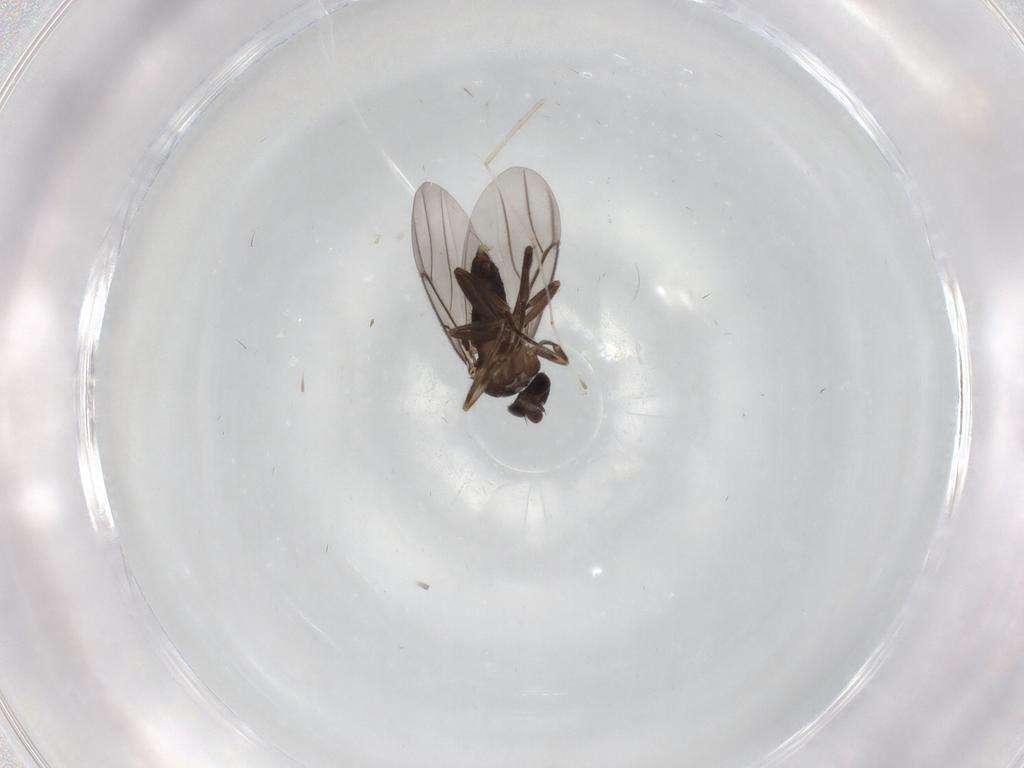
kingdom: Animalia
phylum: Arthropoda
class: Insecta
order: Diptera
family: Cecidomyiidae
